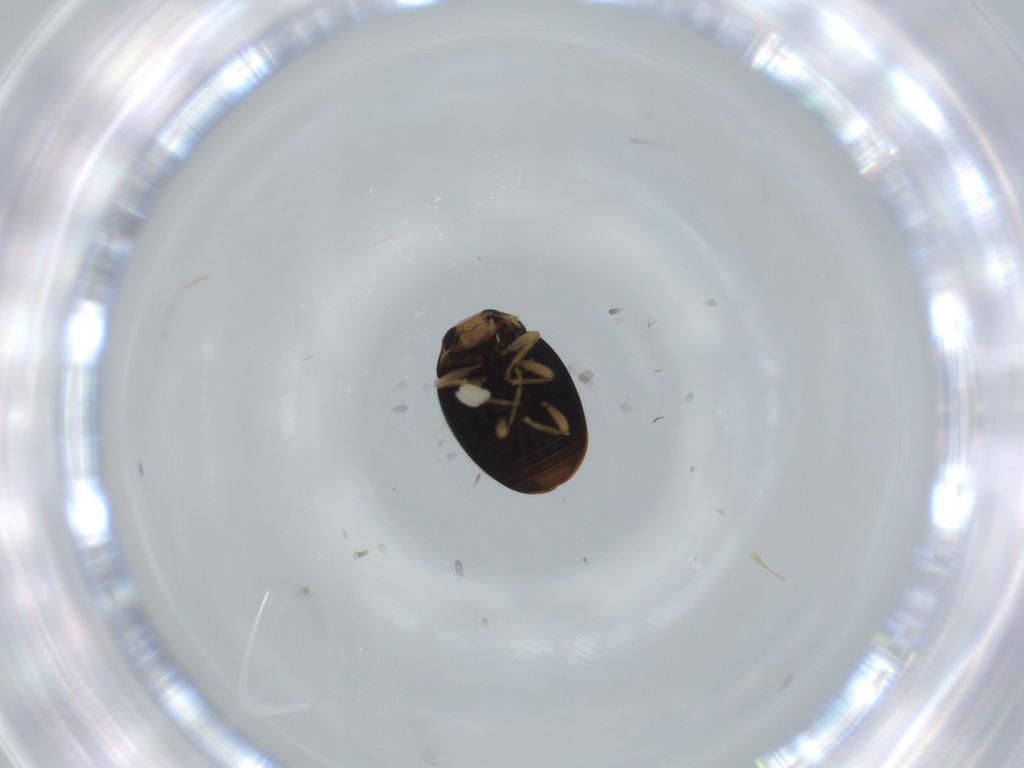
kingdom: Animalia
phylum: Arthropoda
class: Insecta
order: Coleoptera
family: Coccinellidae
